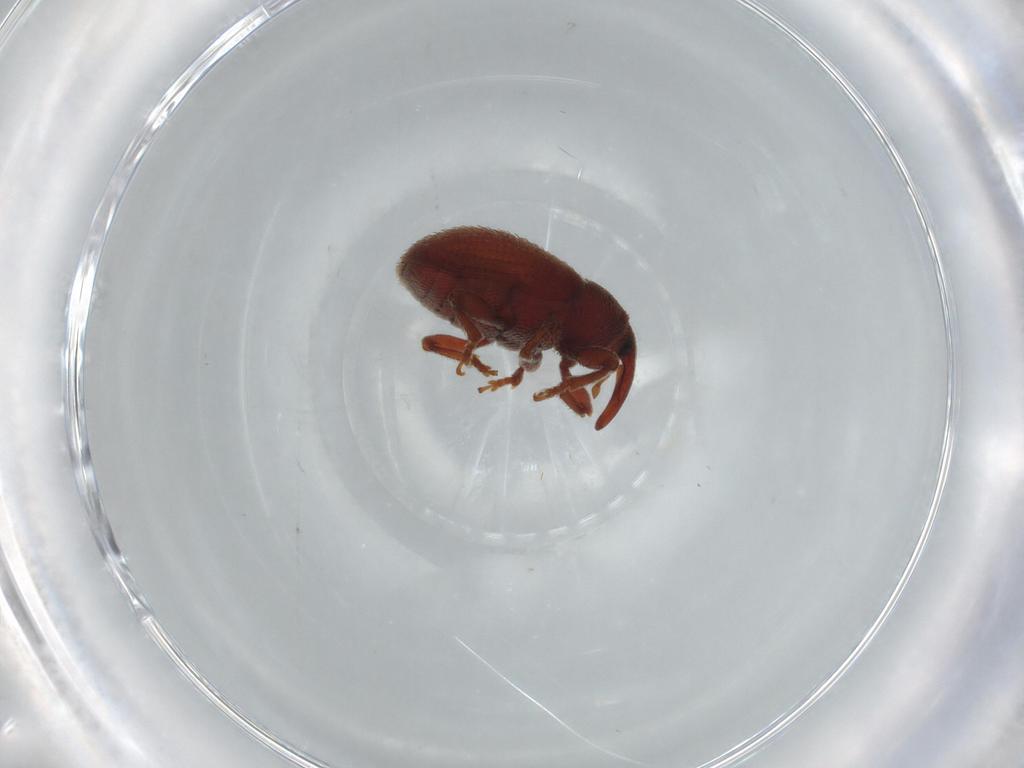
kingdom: Animalia
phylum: Arthropoda
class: Insecta
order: Coleoptera
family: Curculionidae
